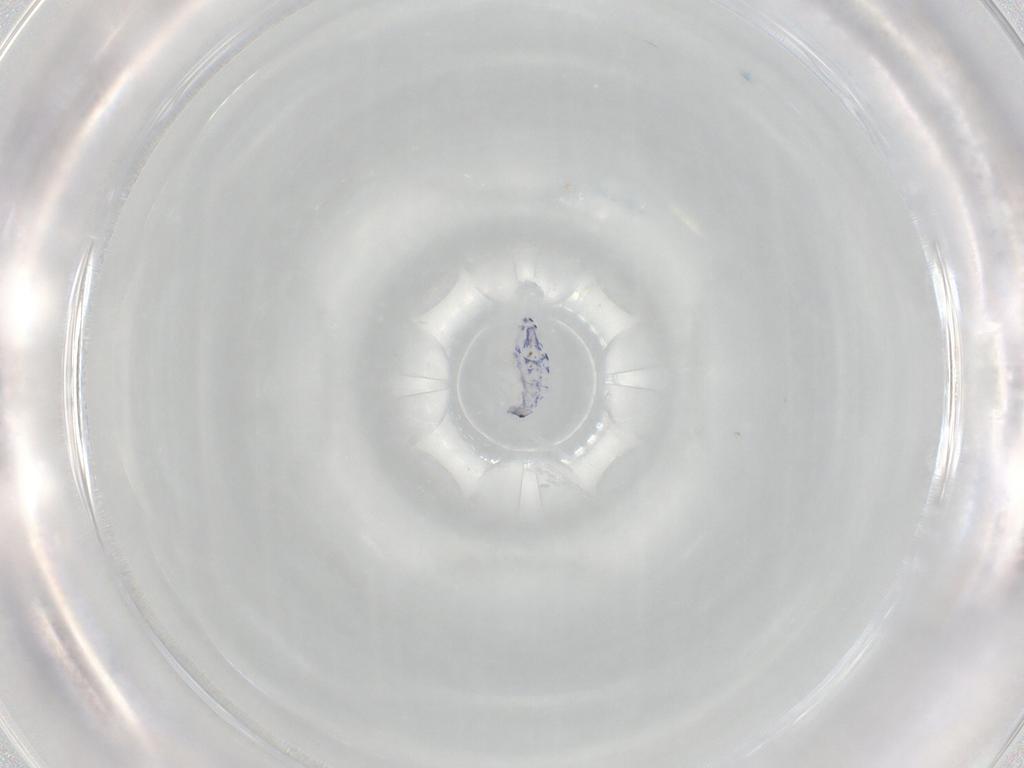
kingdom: Animalia
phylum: Arthropoda
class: Collembola
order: Entomobryomorpha
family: Entomobryidae
